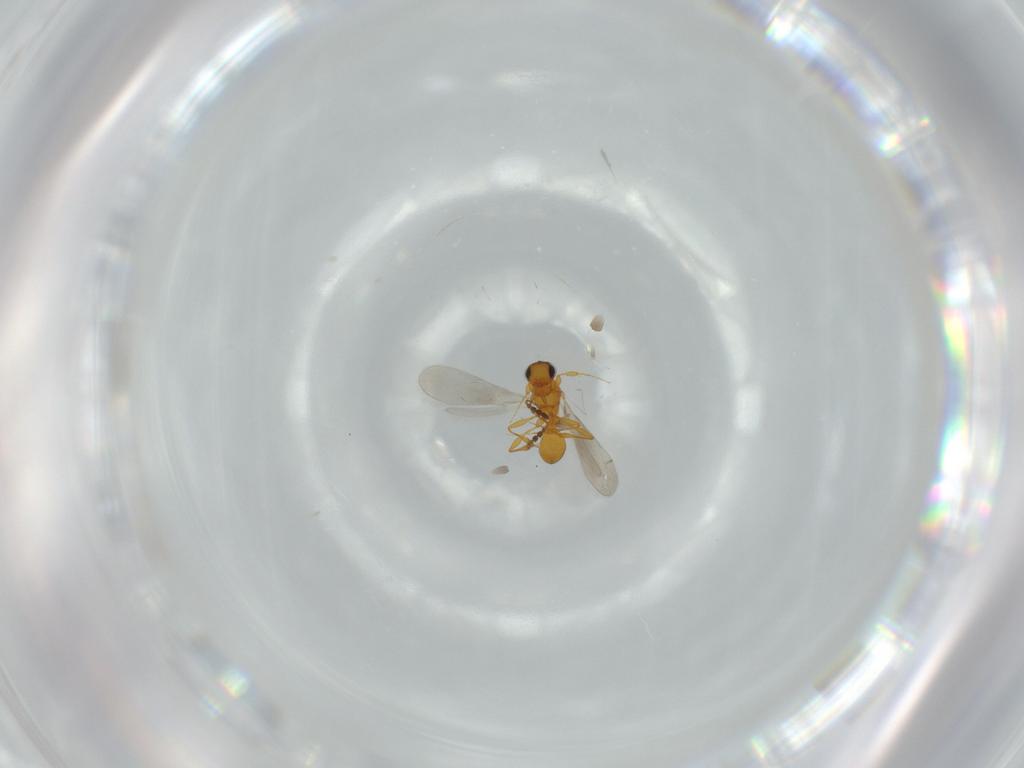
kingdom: Animalia
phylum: Arthropoda
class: Insecta
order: Hymenoptera
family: Platygastridae
